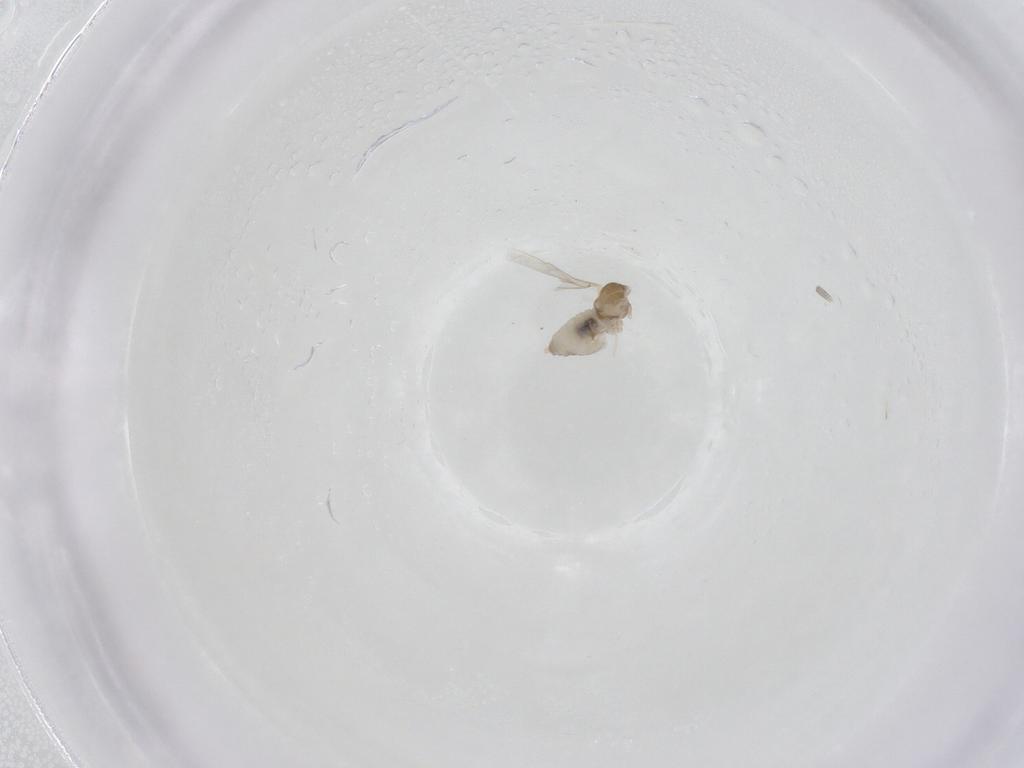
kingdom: Animalia
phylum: Arthropoda
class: Insecta
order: Diptera
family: Cecidomyiidae
